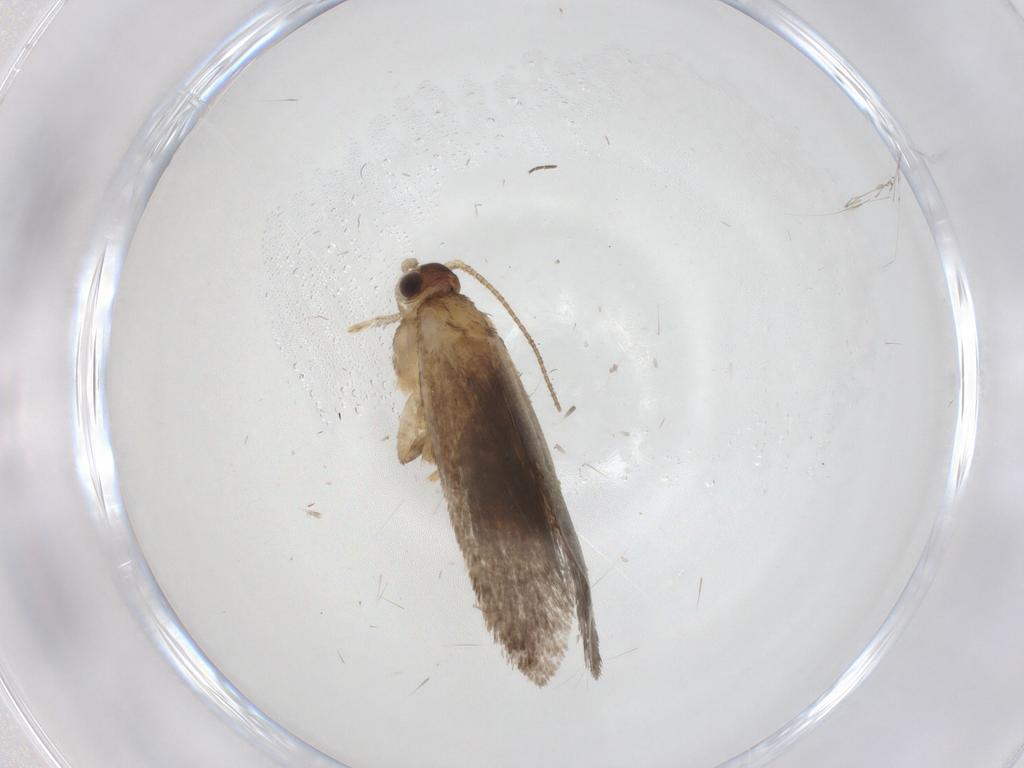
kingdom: Animalia
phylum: Arthropoda
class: Insecta
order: Lepidoptera
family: Dryadaulidae
